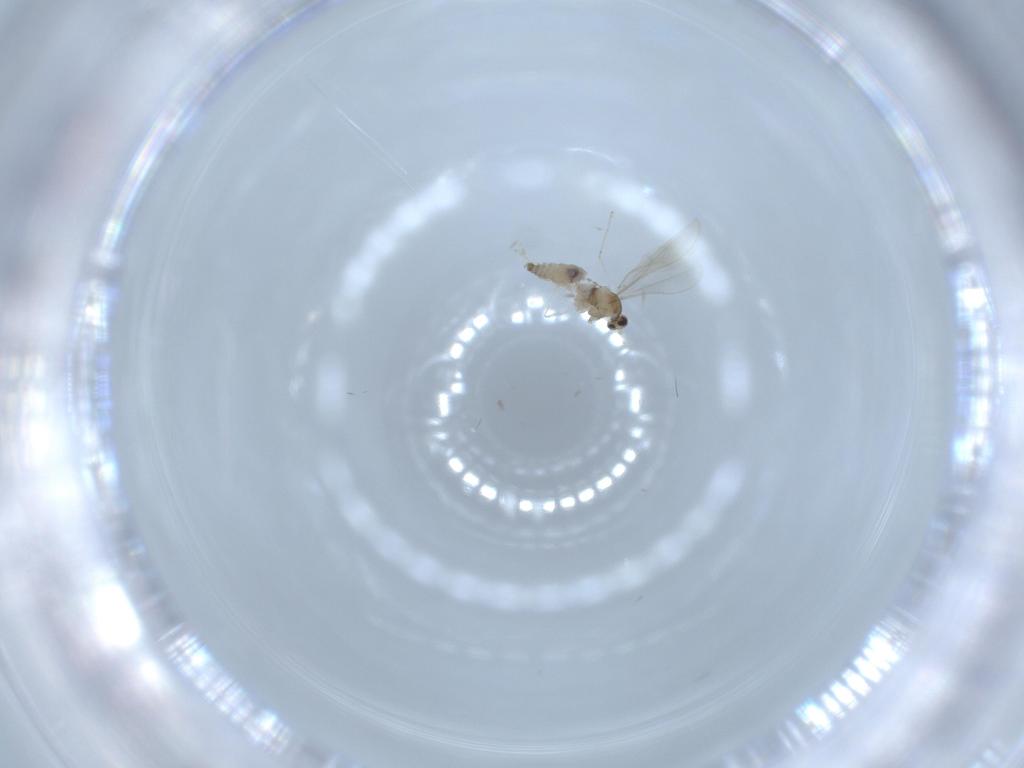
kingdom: Animalia
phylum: Arthropoda
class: Insecta
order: Diptera
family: Cecidomyiidae
